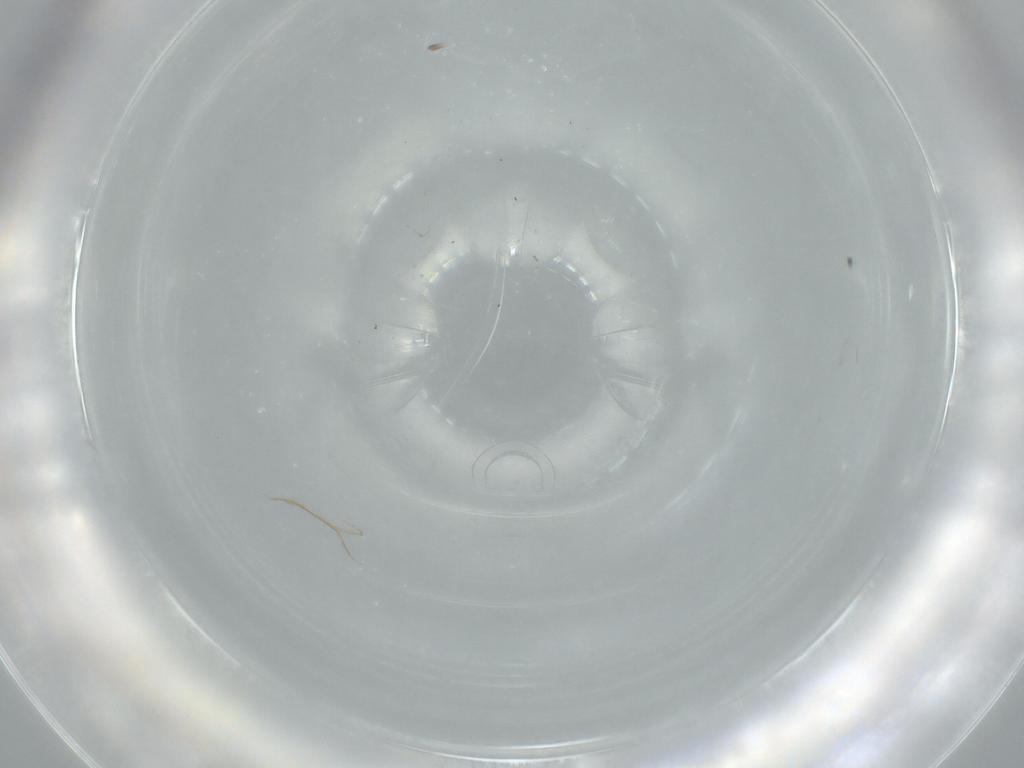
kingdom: Animalia
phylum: Arthropoda
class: Insecta
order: Diptera
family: Cecidomyiidae
